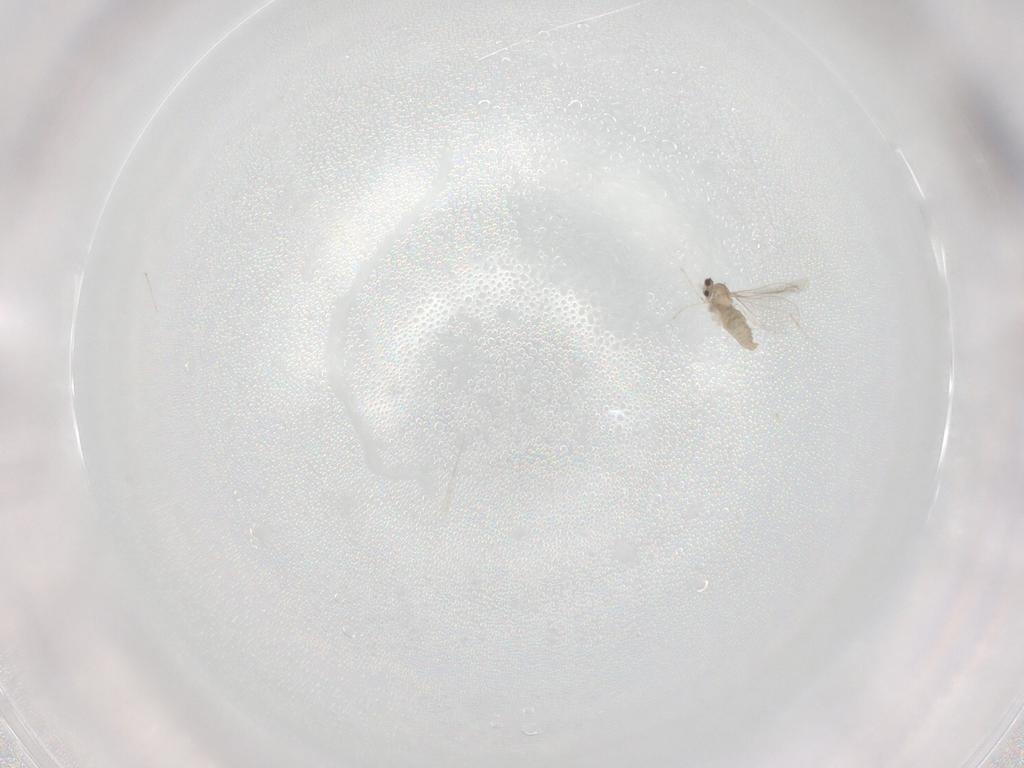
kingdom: Animalia
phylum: Arthropoda
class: Insecta
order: Diptera
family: Cecidomyiidae
